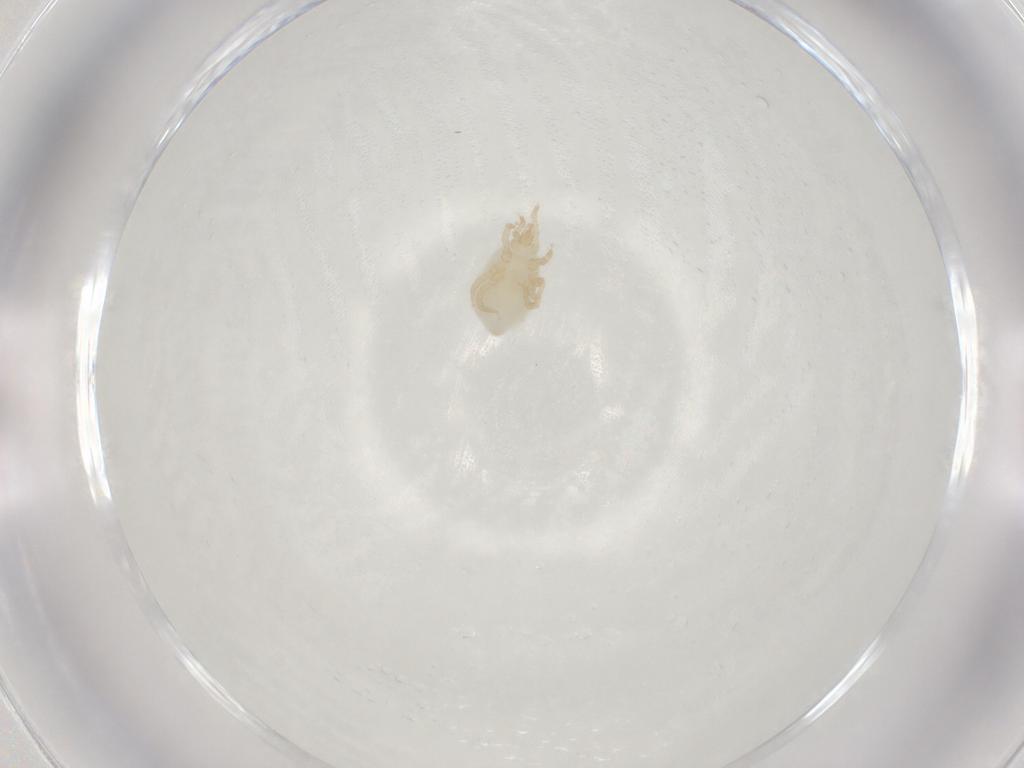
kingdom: Animalia
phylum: Arthropoda
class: Arachnida
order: Mesostigmata
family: Melicharidae
